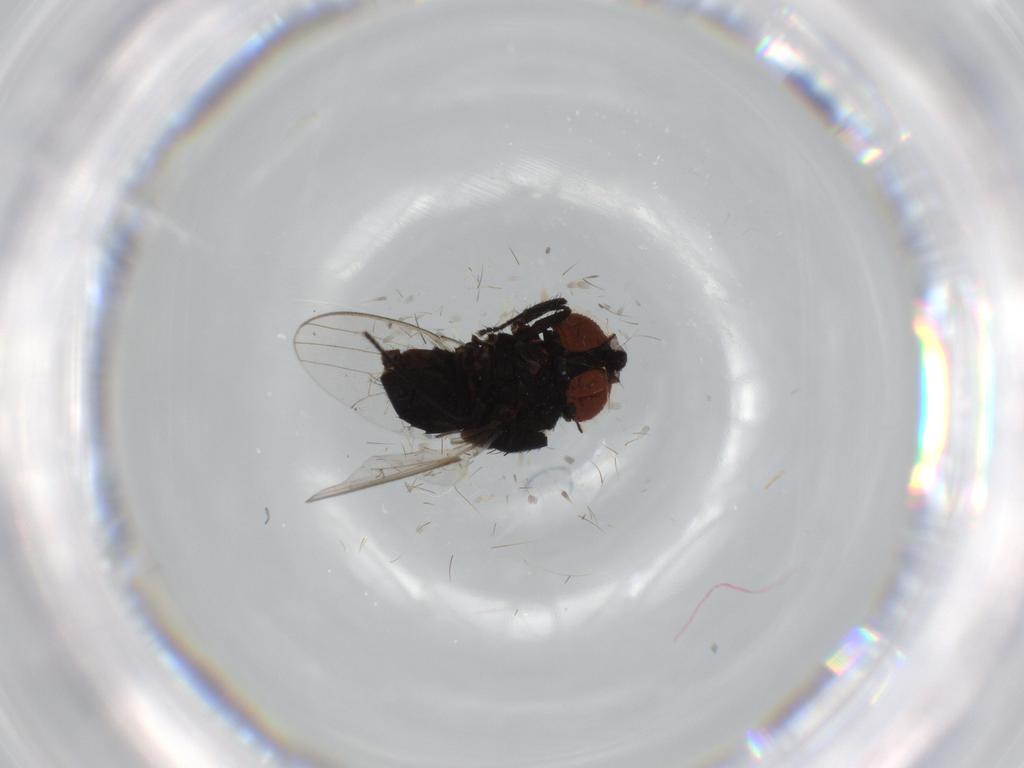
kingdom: Animalia
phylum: Arthropoda
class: Insecta
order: Diptera
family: Milichiidae
